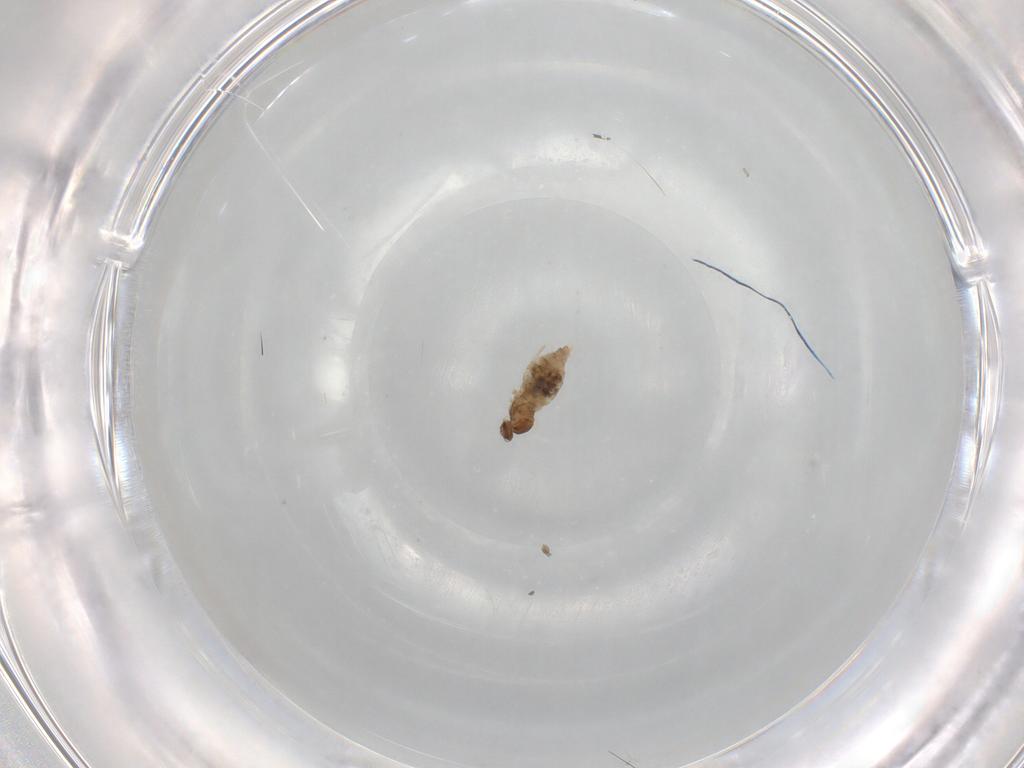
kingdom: Animalia
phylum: Arthropoda
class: Insecta
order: Diptera
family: Cecidomyiidae
